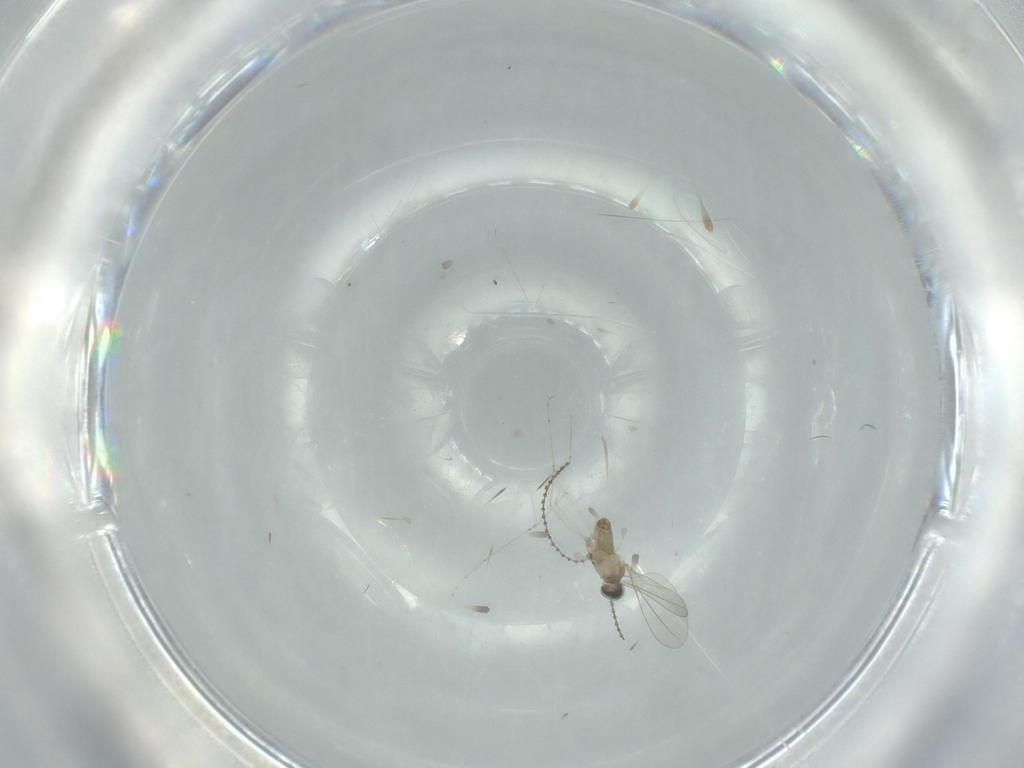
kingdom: Animalia
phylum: Arthropoda
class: Insecta
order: Diptera
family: Cecidomyiidae
